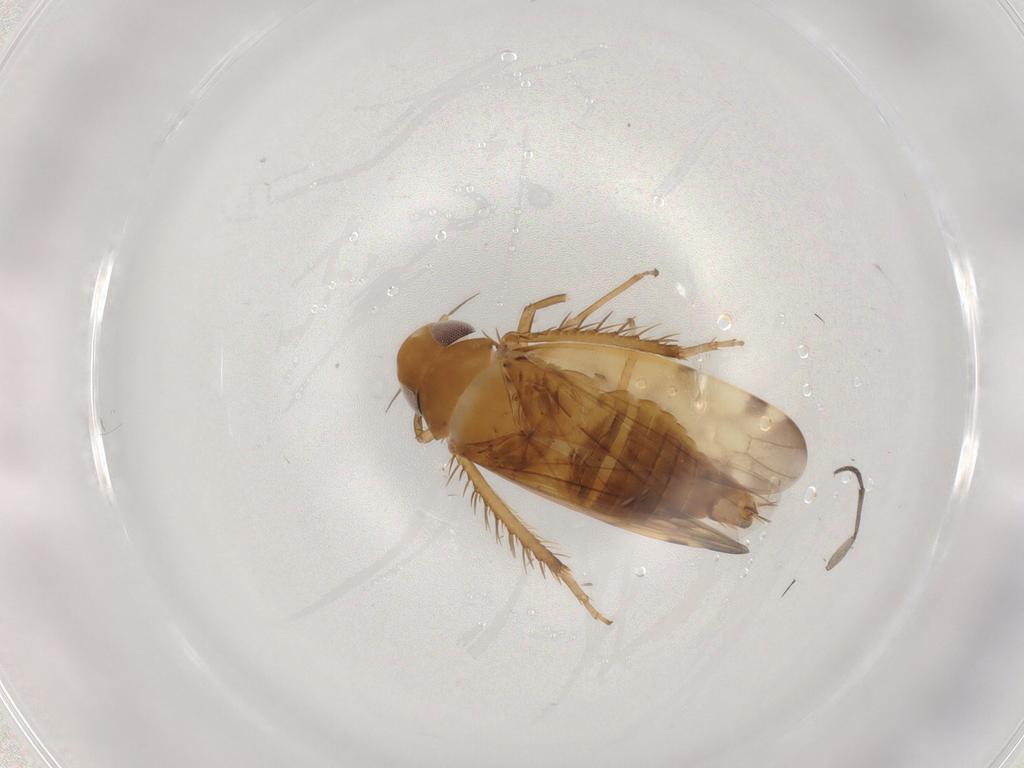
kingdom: Animalia
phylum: Arthropoda
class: Insecta
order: Hemiptera
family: Cicadellidae
